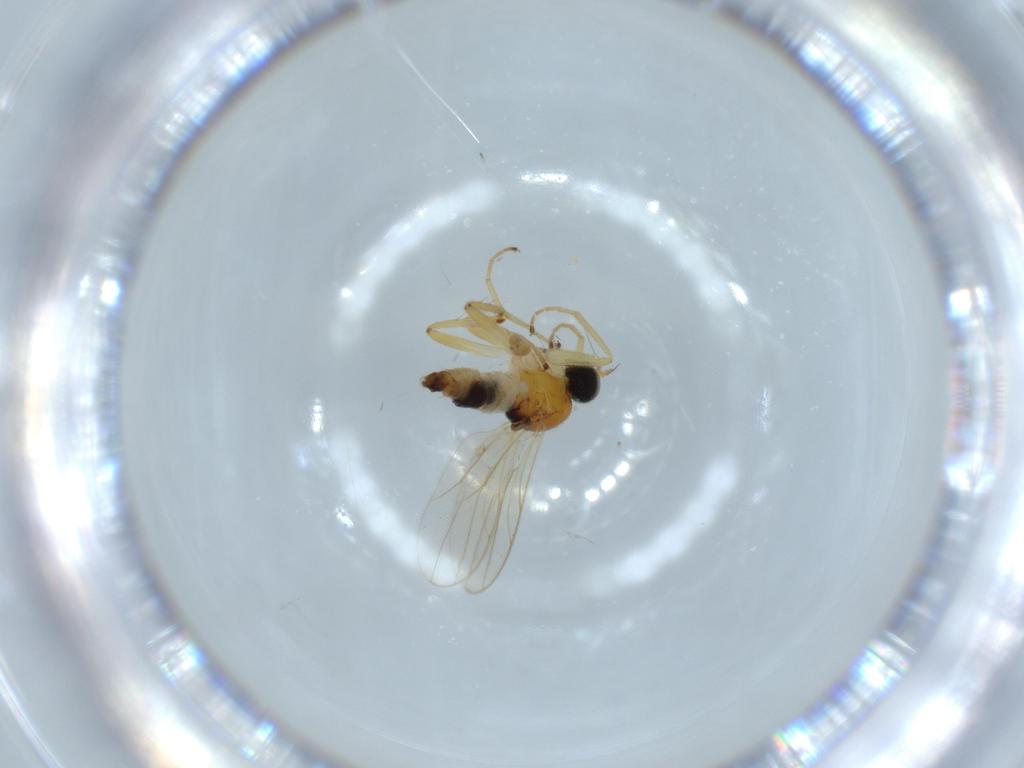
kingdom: Animalia
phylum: Arthropoda
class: Insecta
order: Diptera
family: Hybotidae
